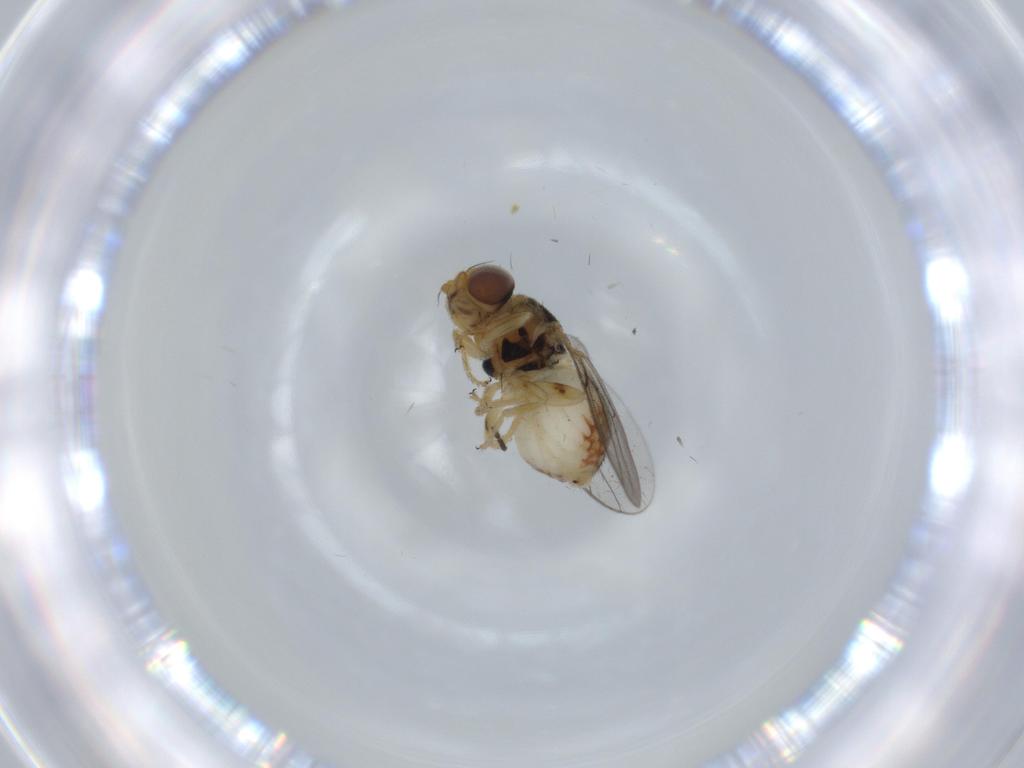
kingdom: Animalia
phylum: Arthropoda
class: Insecta
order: Diptera
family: Chloropidae
